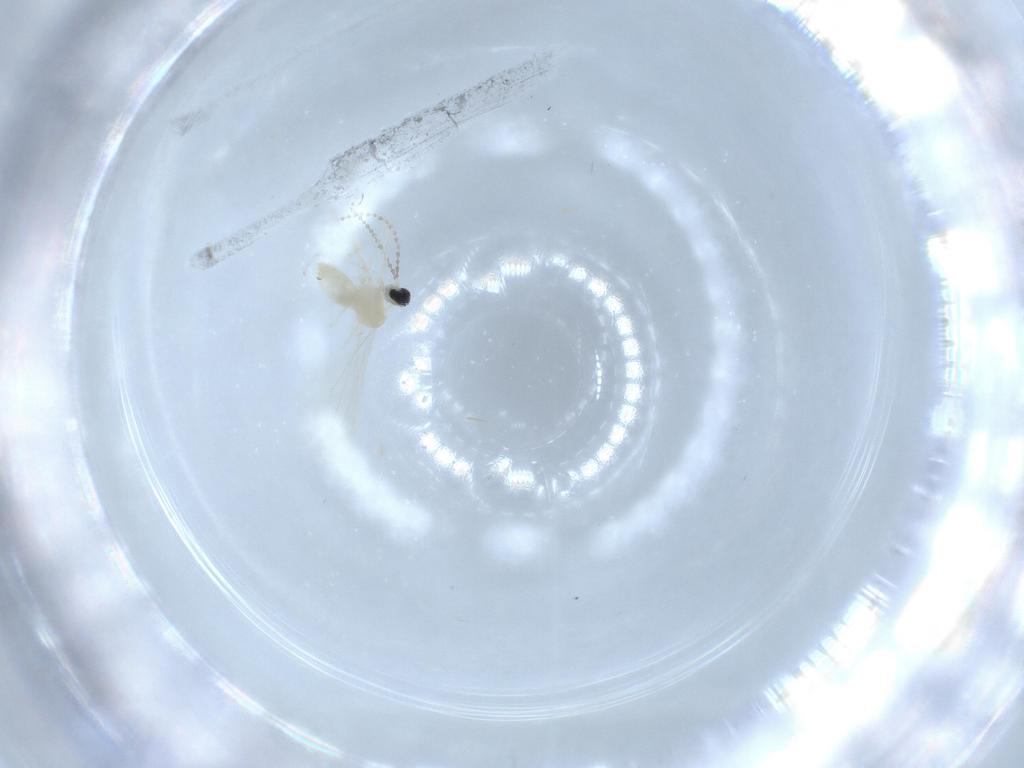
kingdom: Animalia
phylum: Arthropoda
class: Insecta
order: Diptera
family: Cecidomyiidae
